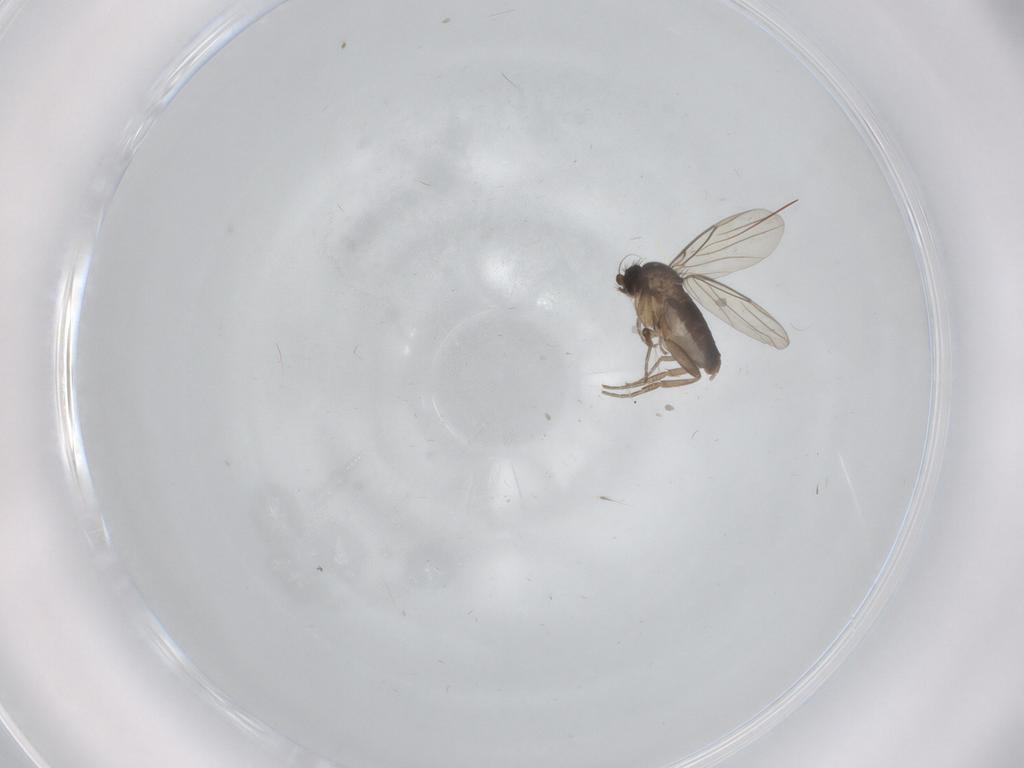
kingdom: Animalia
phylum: Arthropoda
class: Insecta
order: Diptera
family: Phoridae
